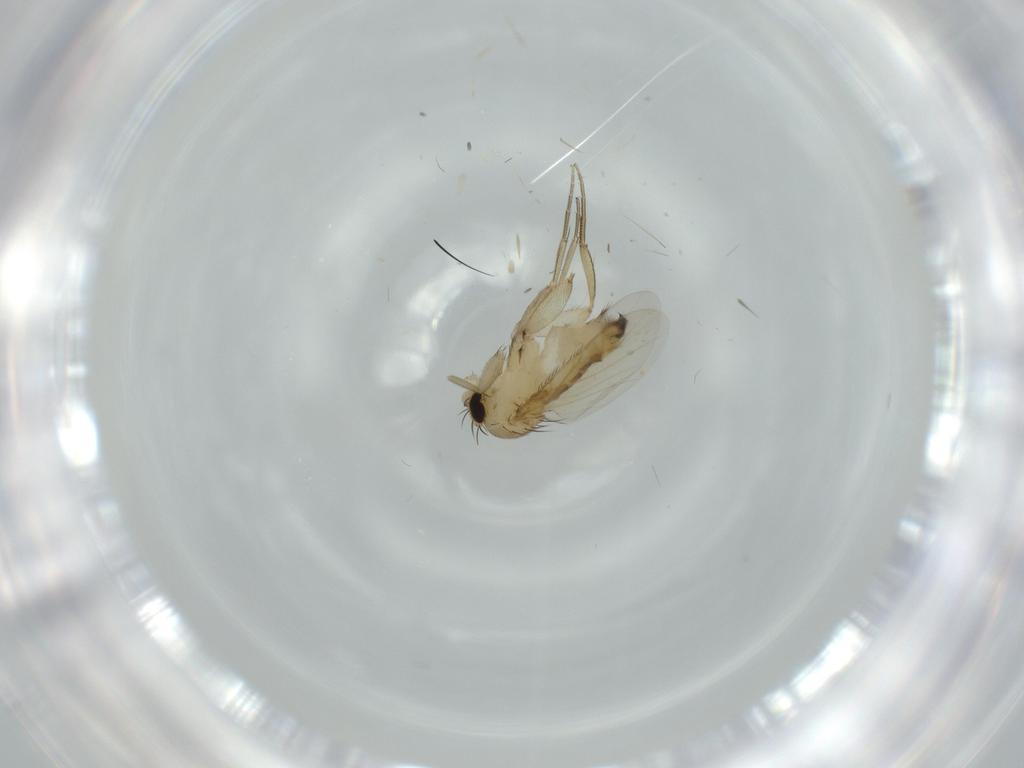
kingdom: Animalia
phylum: Arthropoda
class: Insecta
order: Diptera
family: Phoridae
